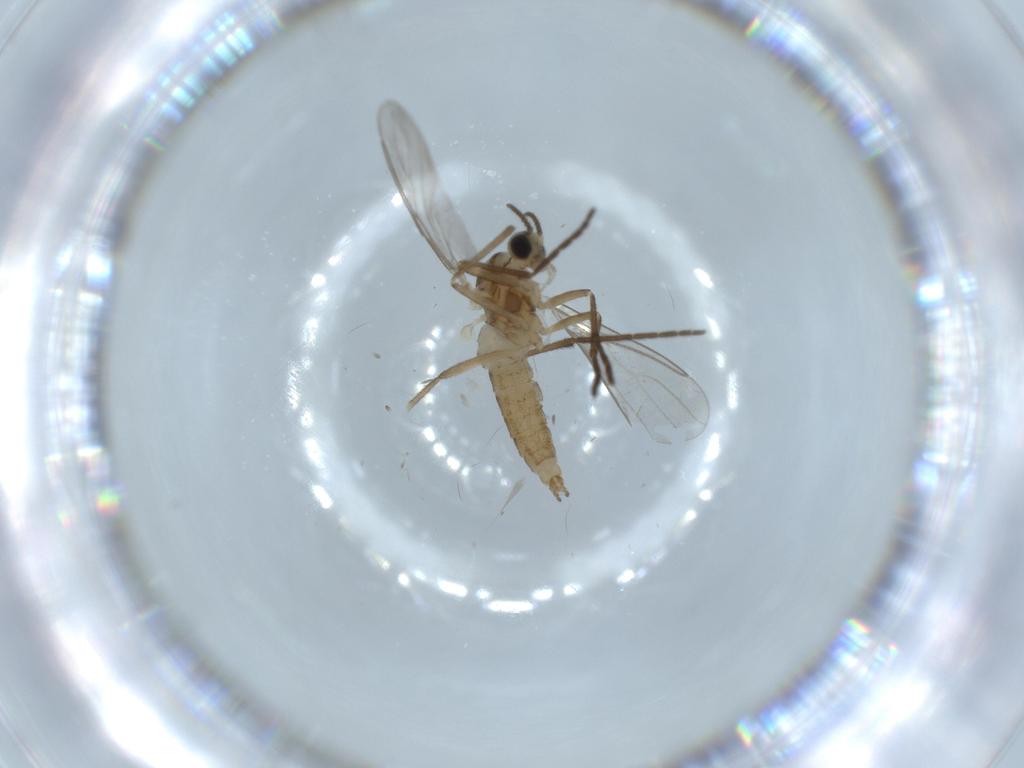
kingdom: Animalia
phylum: Arthropoda
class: Insecta
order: Diptera
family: Cecidomyiidae
